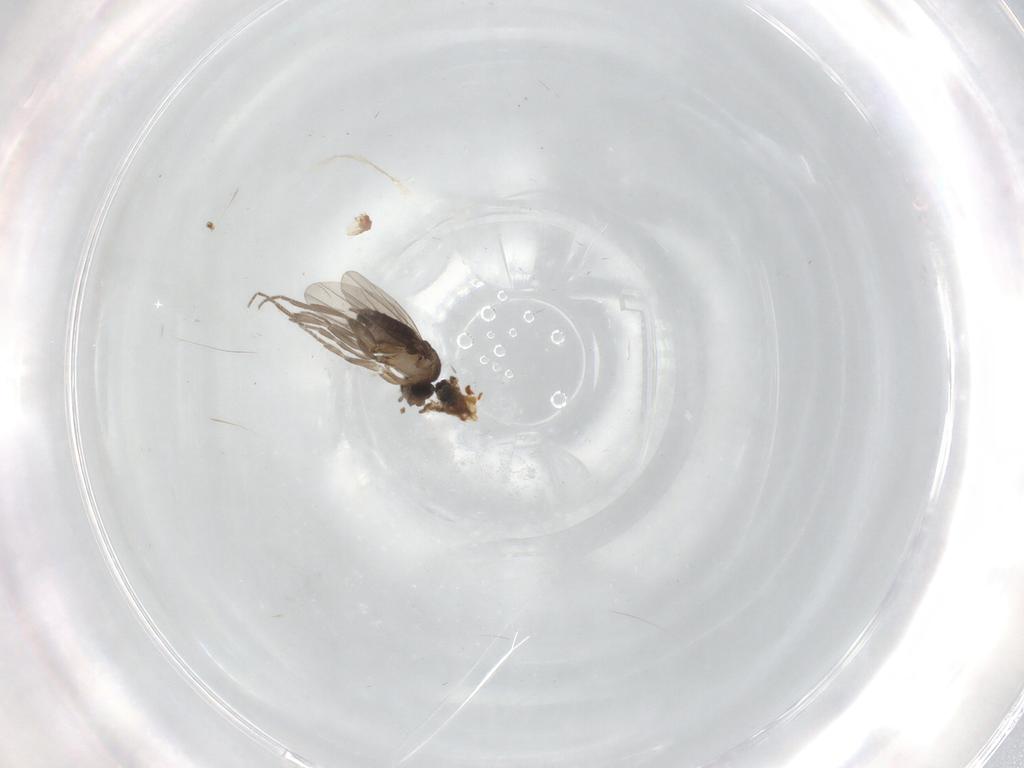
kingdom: Animalia
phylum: Arthropoda
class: Insecta
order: Diptera
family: Phoridae
